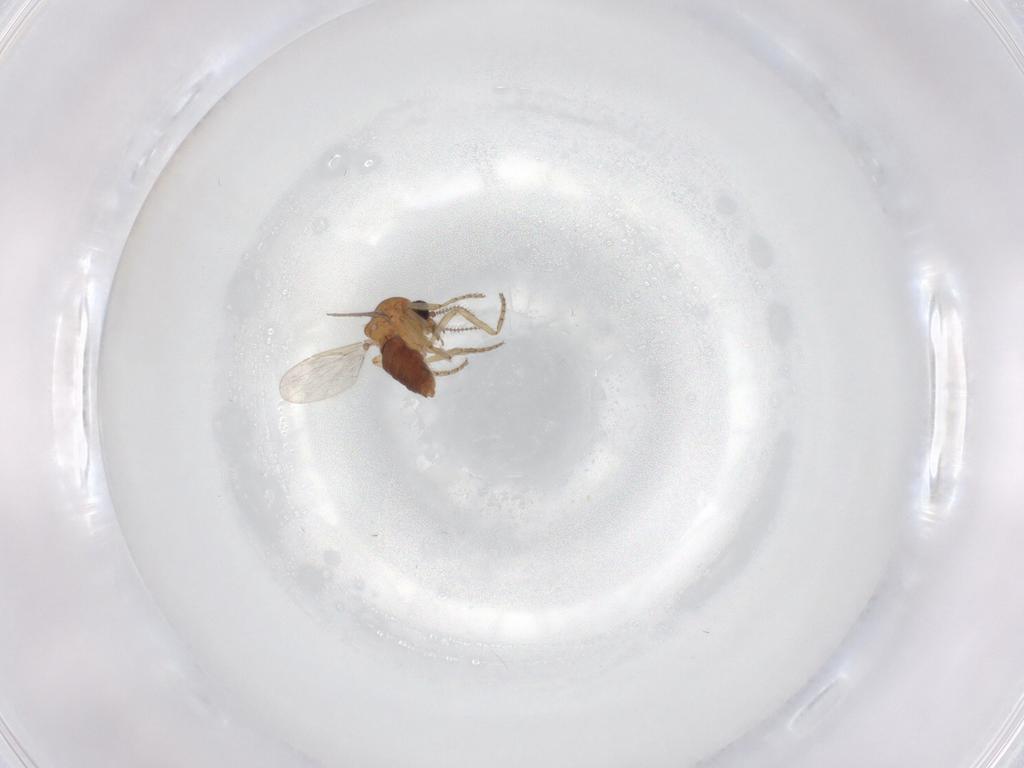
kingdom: Animalia
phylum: Arthropoda
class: Insecta
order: Diptera
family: Ceratopogonidae
